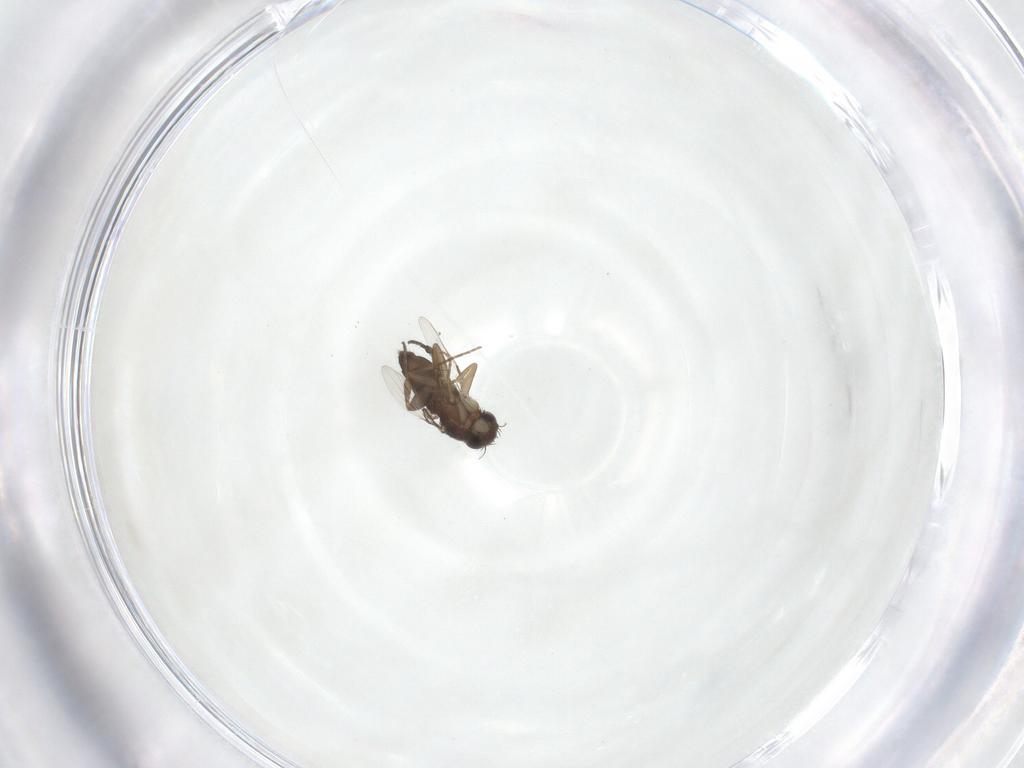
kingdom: Animalia
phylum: Arthropoda
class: Insecta
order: Diptera
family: Phoridae
